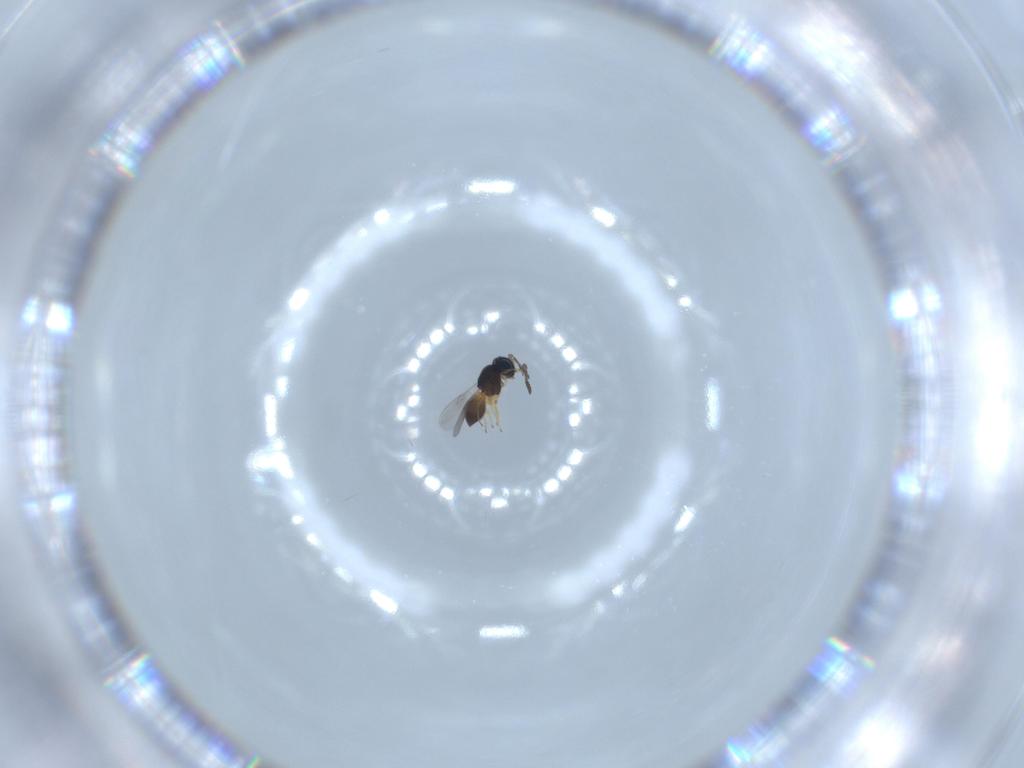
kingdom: Animalia
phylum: Arthropoda
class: Insecta
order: Hymenoptera
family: Scelionidae
